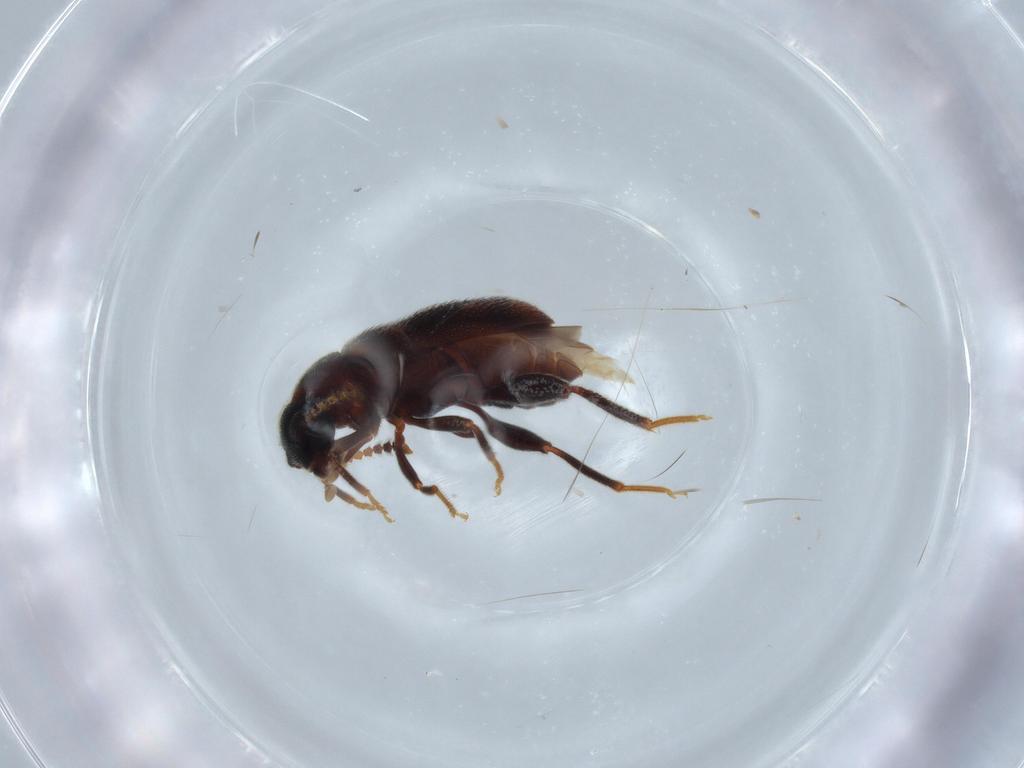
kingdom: Animalia
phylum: Arthropoda
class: Insecta
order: Coleoptera
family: Aderidae
